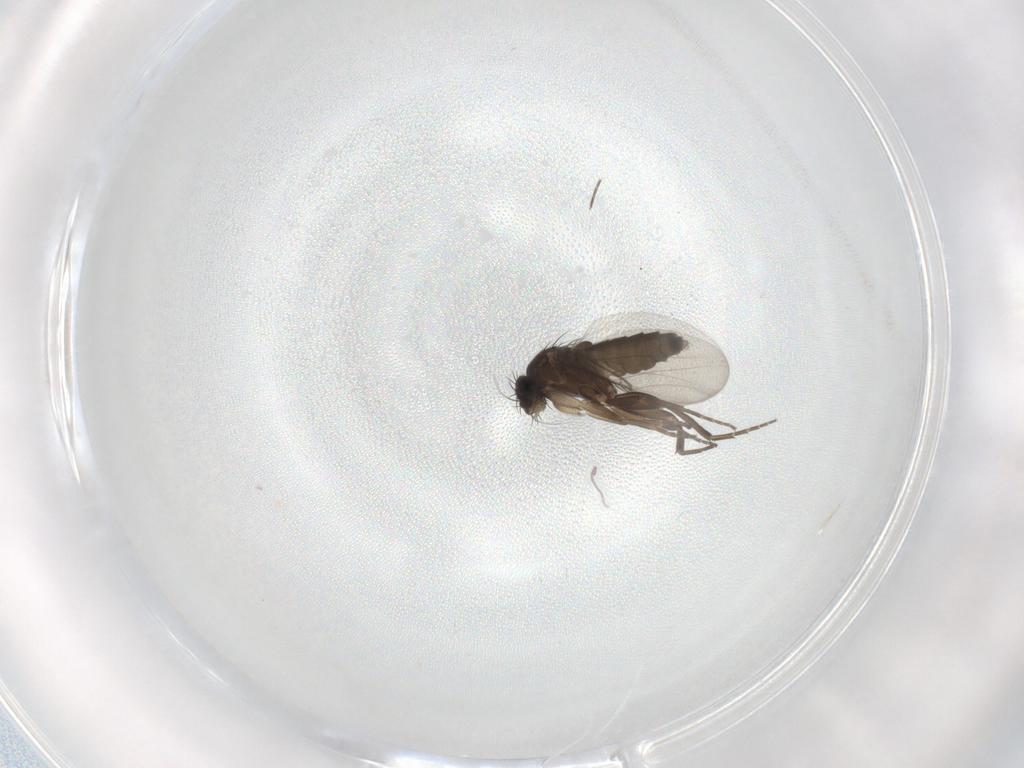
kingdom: Animalia
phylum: Arthropoda
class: Insecta
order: Diptera
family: Phoridae
